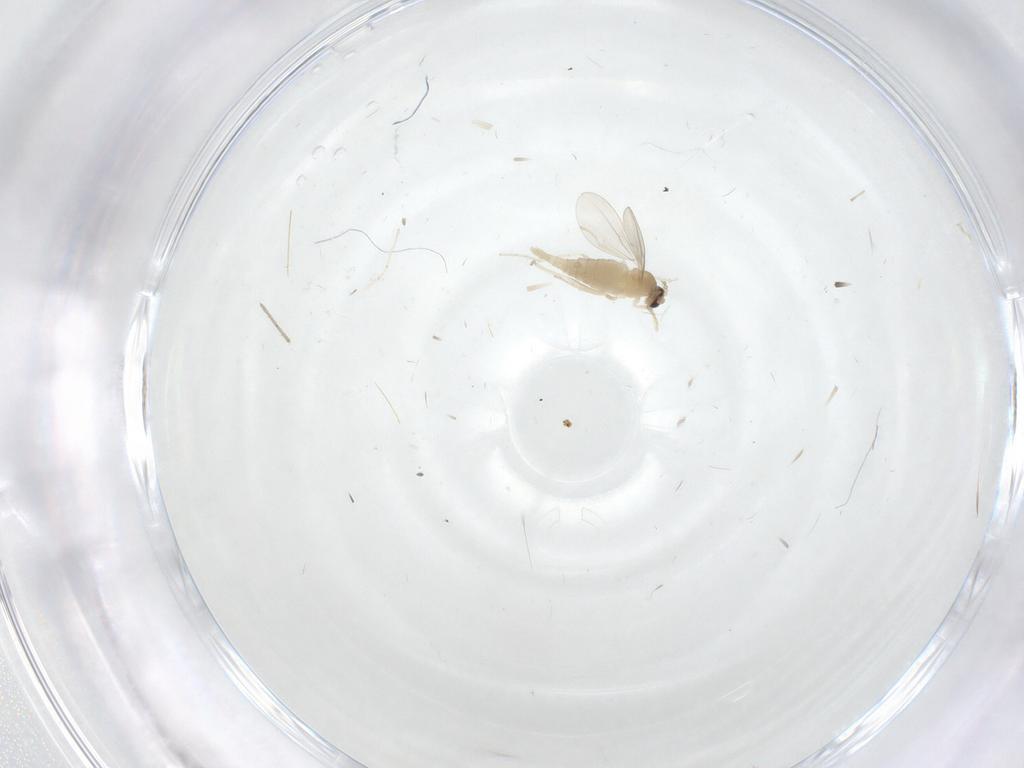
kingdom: Animalia
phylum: Arthropoda
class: Insecta
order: Diptera
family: Cecidomyiidae
